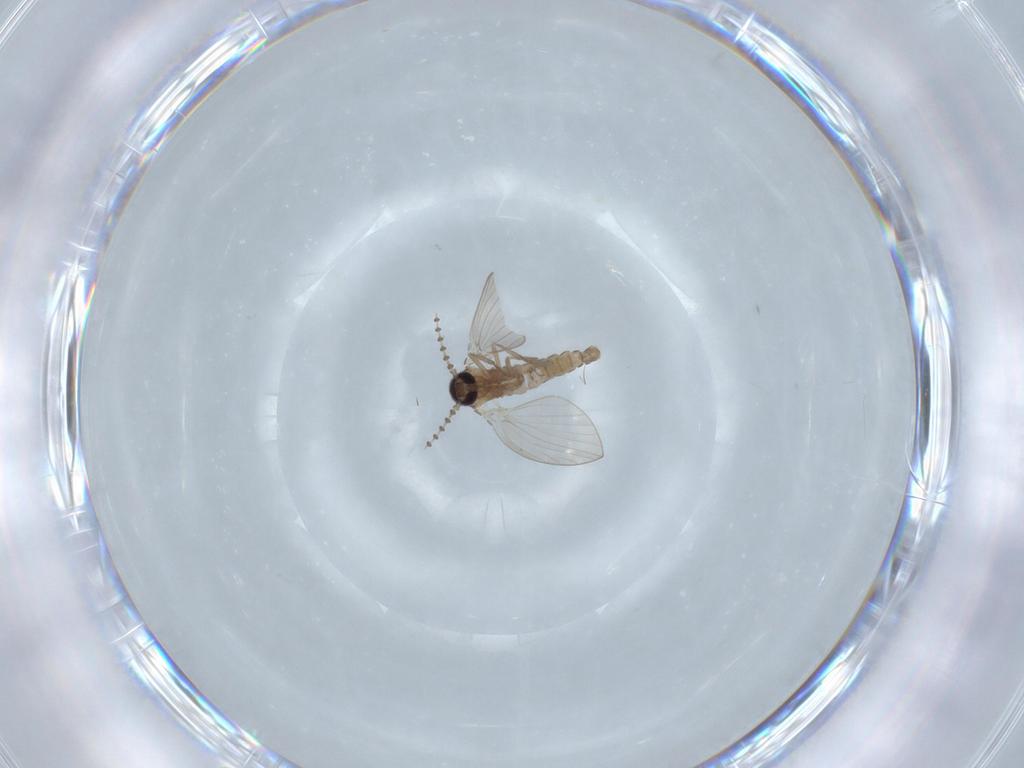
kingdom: Animalia
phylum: Arthropoda
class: Insecta
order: Diptera
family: Psychodidae
